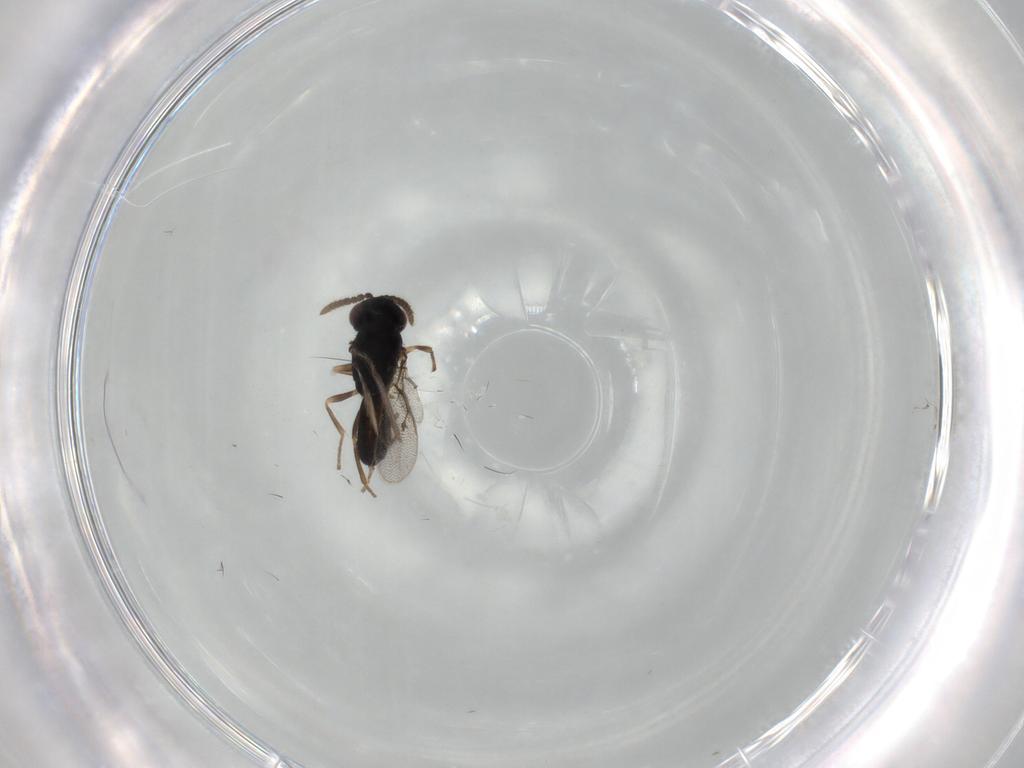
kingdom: Animalia
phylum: Arthropoda
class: Insecta
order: Hymenoptera
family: Pirenidae
